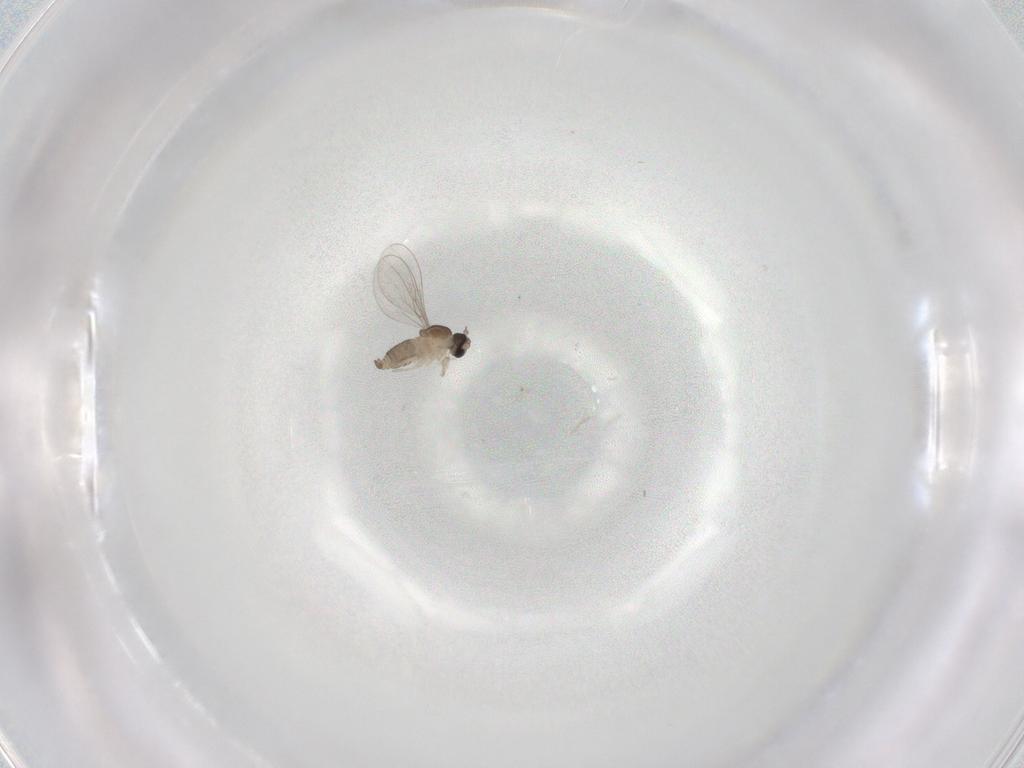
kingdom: Animalia
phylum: Arthropoda
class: Insecta
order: Diptera
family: Cecidomyiidae
